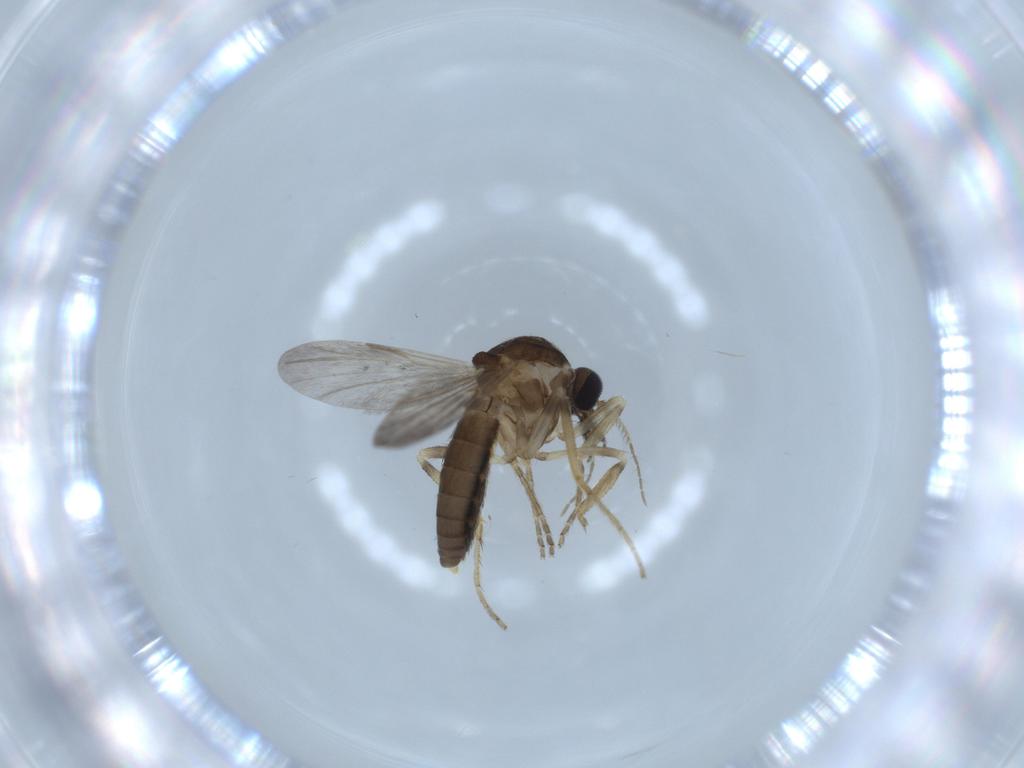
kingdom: Animalia
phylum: Arthropoda
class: Insecta
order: Diptera
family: Ceratopogonidae
